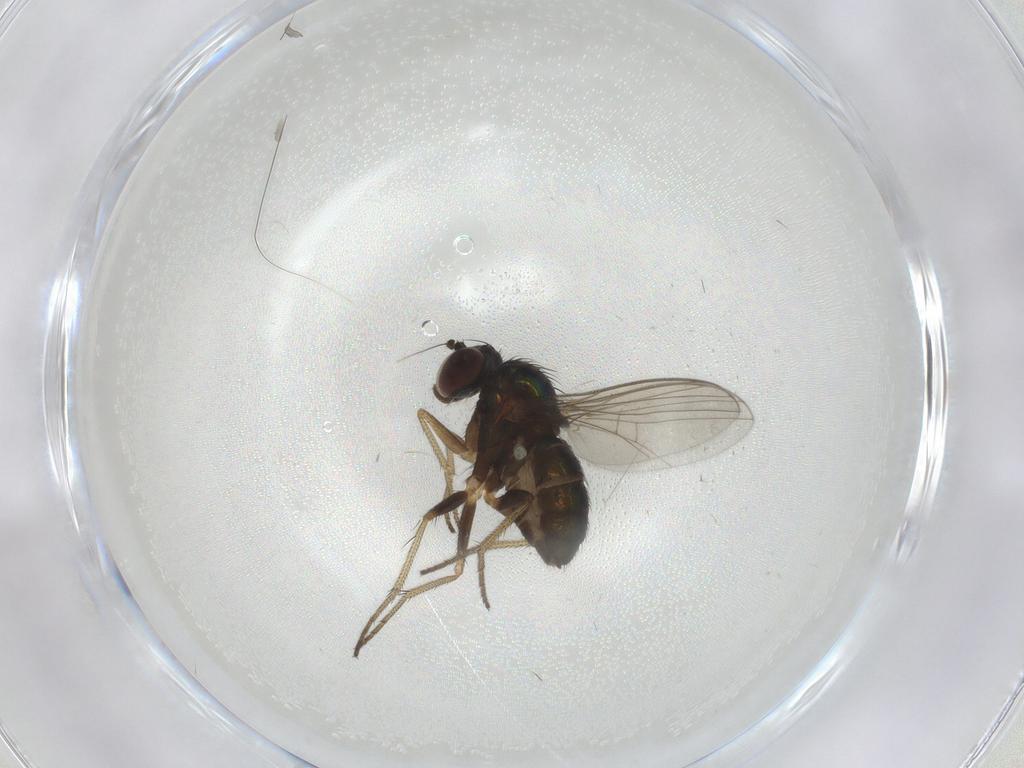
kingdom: Animalia
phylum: Arthropoda
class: Insecta
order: Diptera
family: Dolichopodidae
